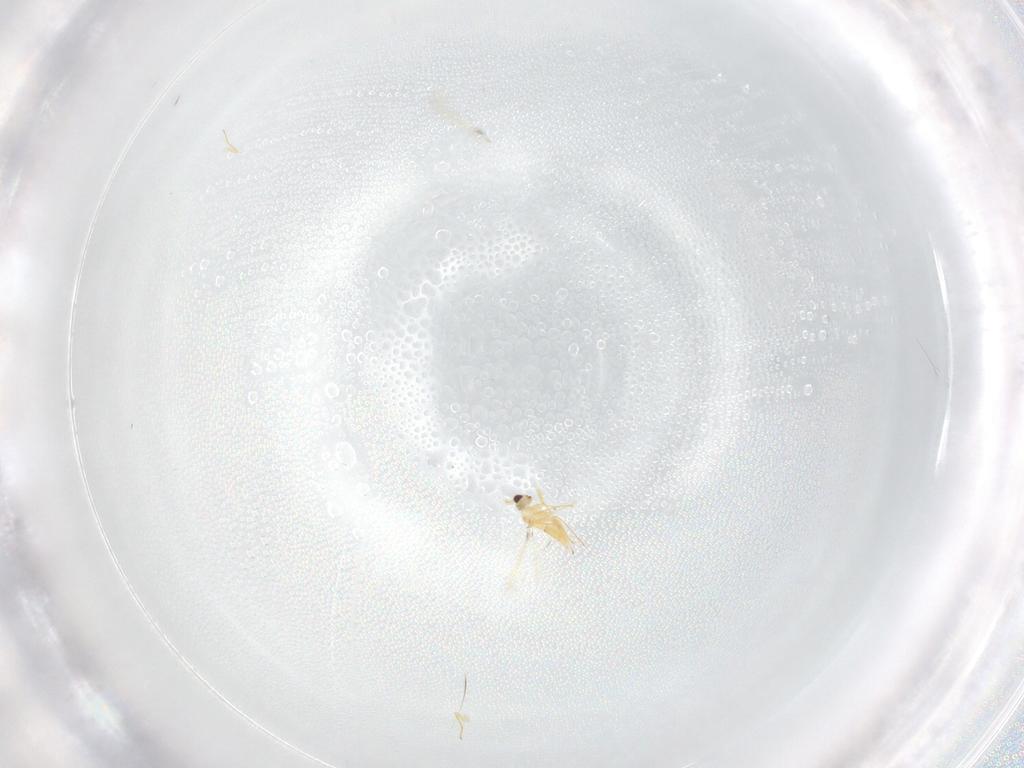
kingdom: Animalia
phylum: Arthropoda
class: Insecta
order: Hymenoptera
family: Mymaridae
